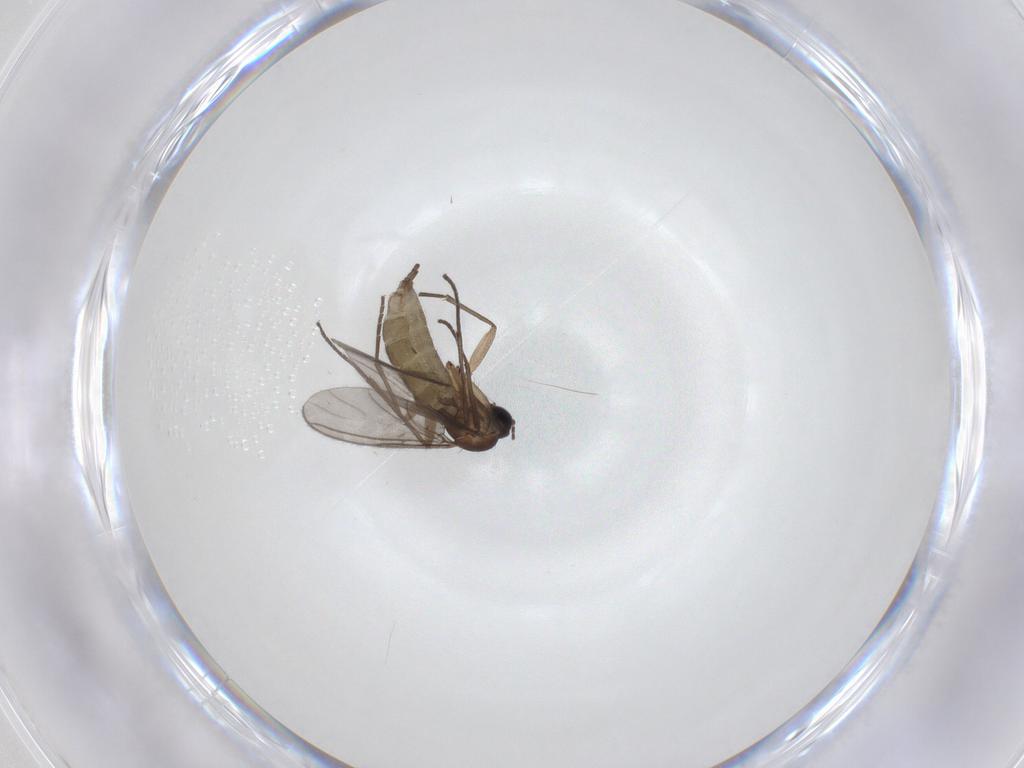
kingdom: Animalia
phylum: Arthropoda
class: Insecta
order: Diptera
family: Sciaridae
